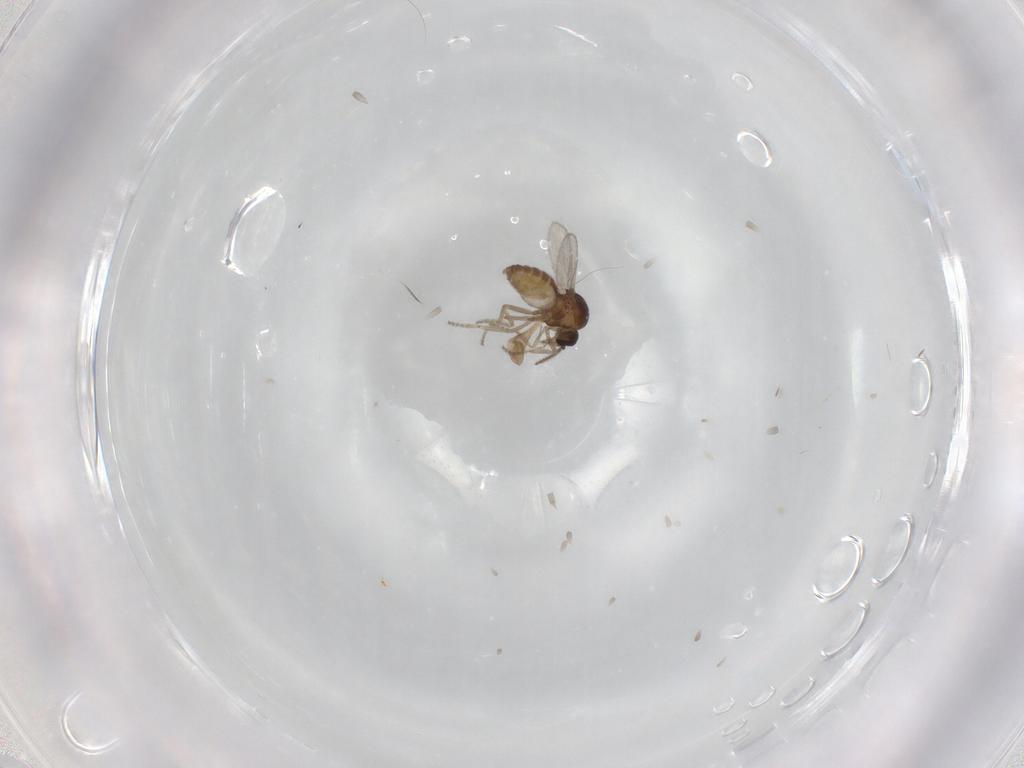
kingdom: Animalia
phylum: Arthropoda
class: Insecta
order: Diptera
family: Ceratopogonidae
